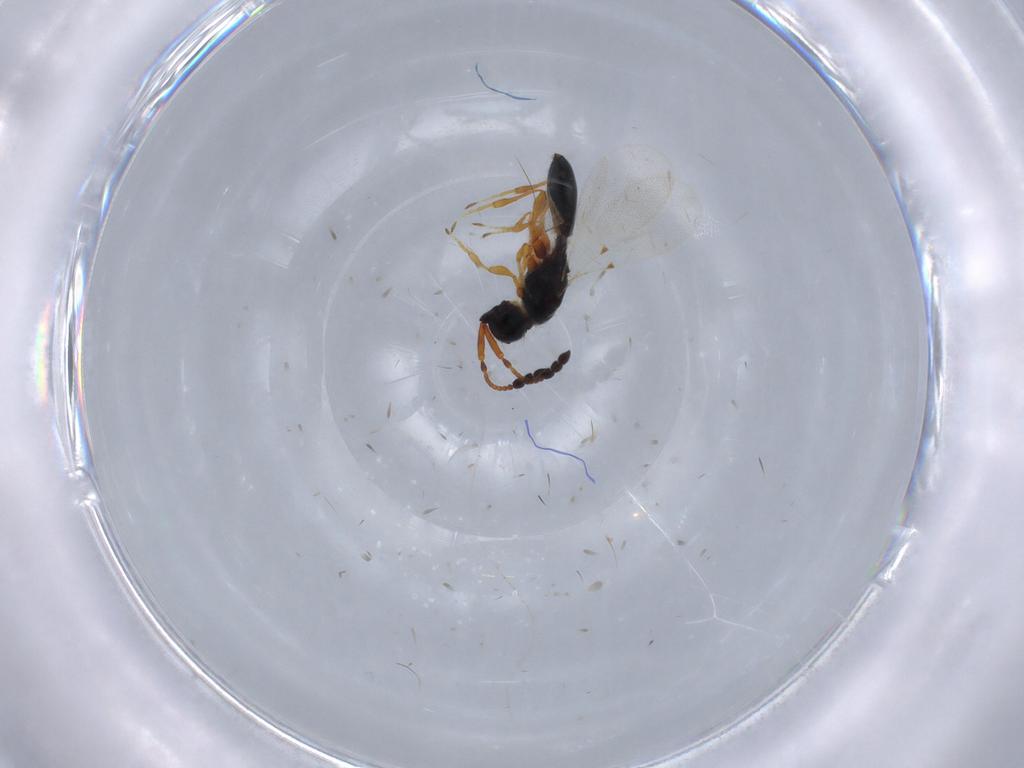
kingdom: Animalia
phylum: Arthropoda
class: Insecta
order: Hymenoptera
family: Diapriidae
